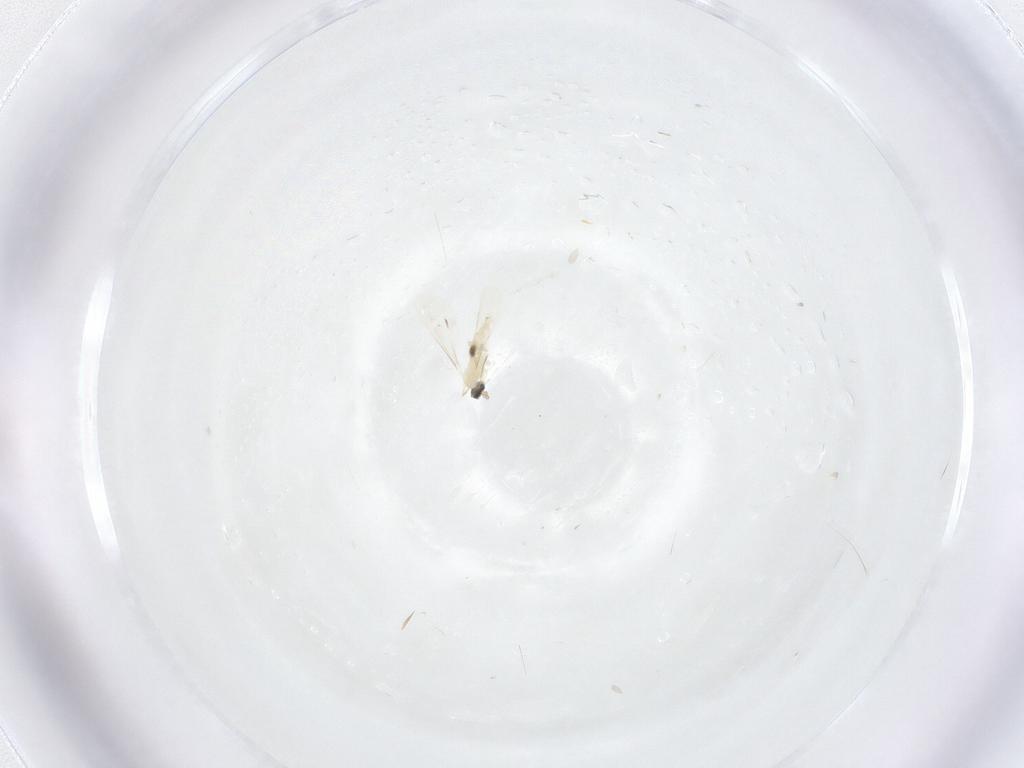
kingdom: Animalia
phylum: Arthropoda
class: Insecta
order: Diptera
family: Cecidomyiidae
